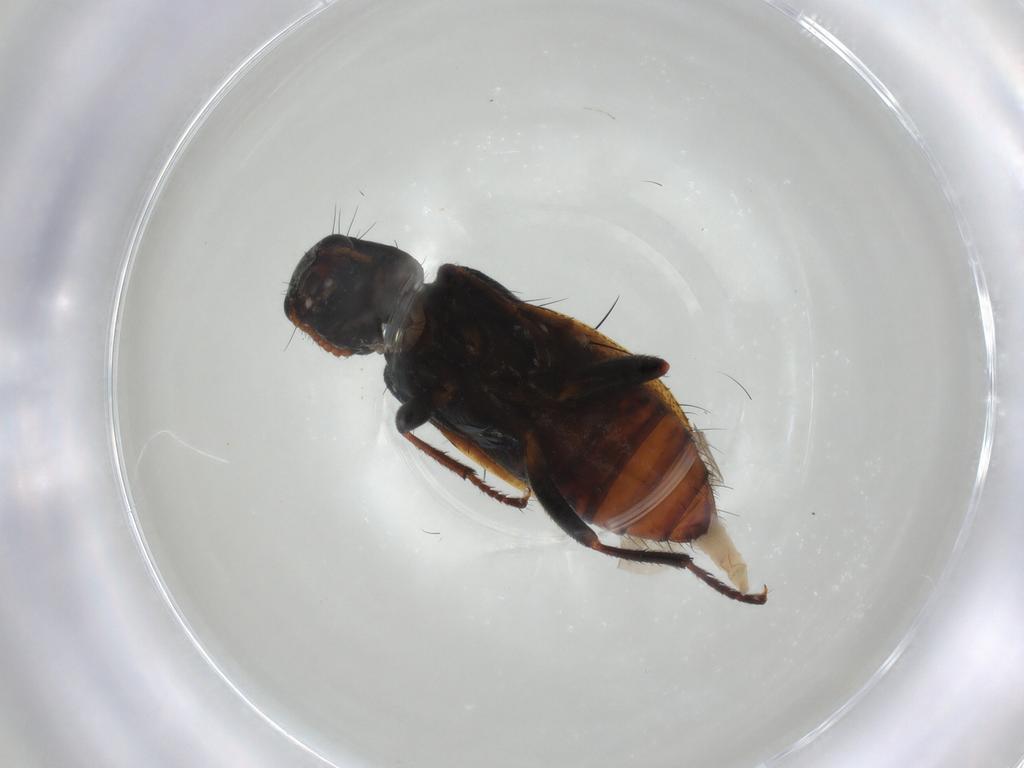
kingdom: Animalia
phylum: Arthropoda
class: Insecta
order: Coleoptera
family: Melyridae
